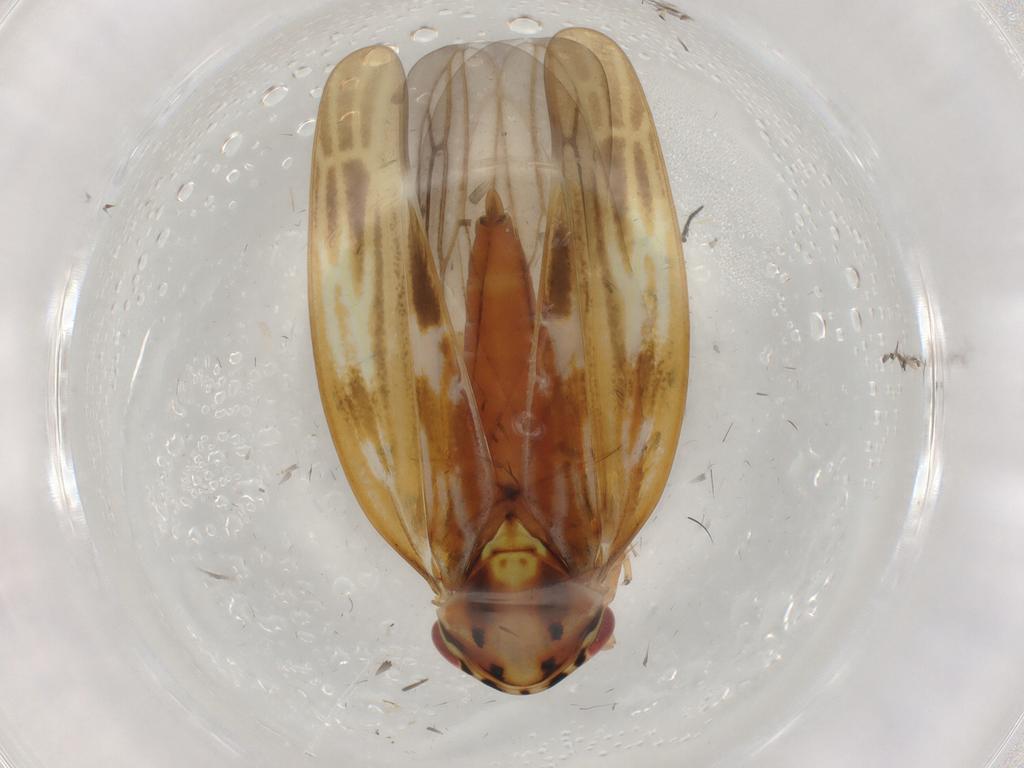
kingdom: Animalia
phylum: Arthropoda
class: Insecta
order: Hemiptera
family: Cicadellidae
